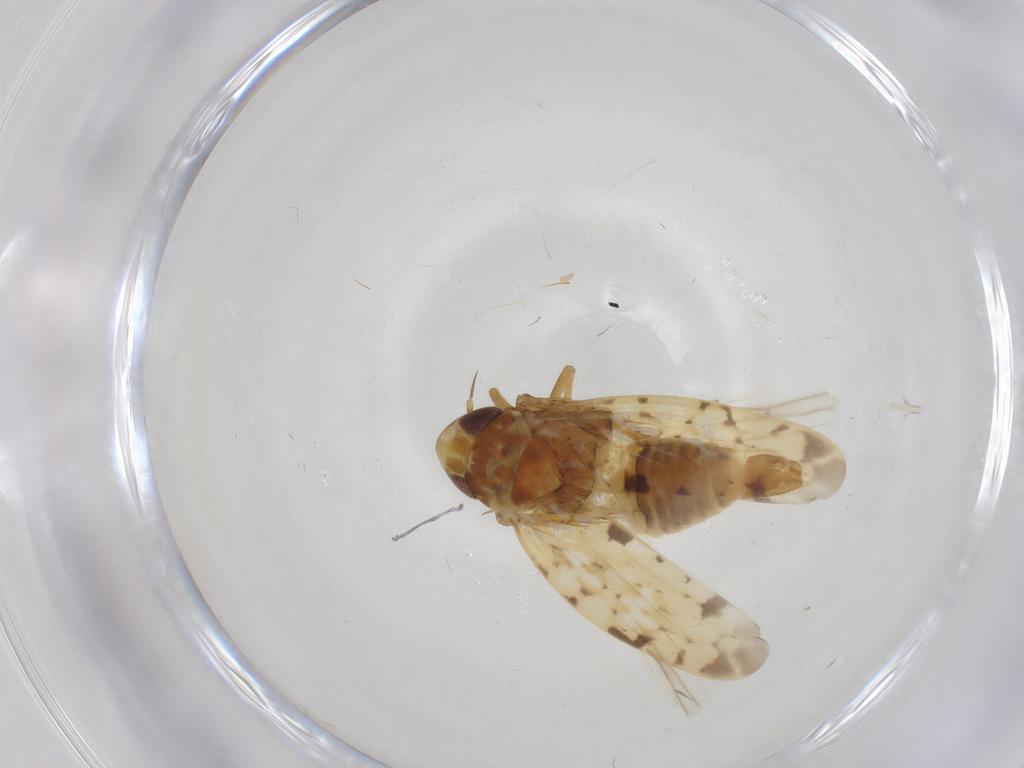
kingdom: Animalia
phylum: Arthropoda
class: Insecta
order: Hemiptera
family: Cicadellidae
